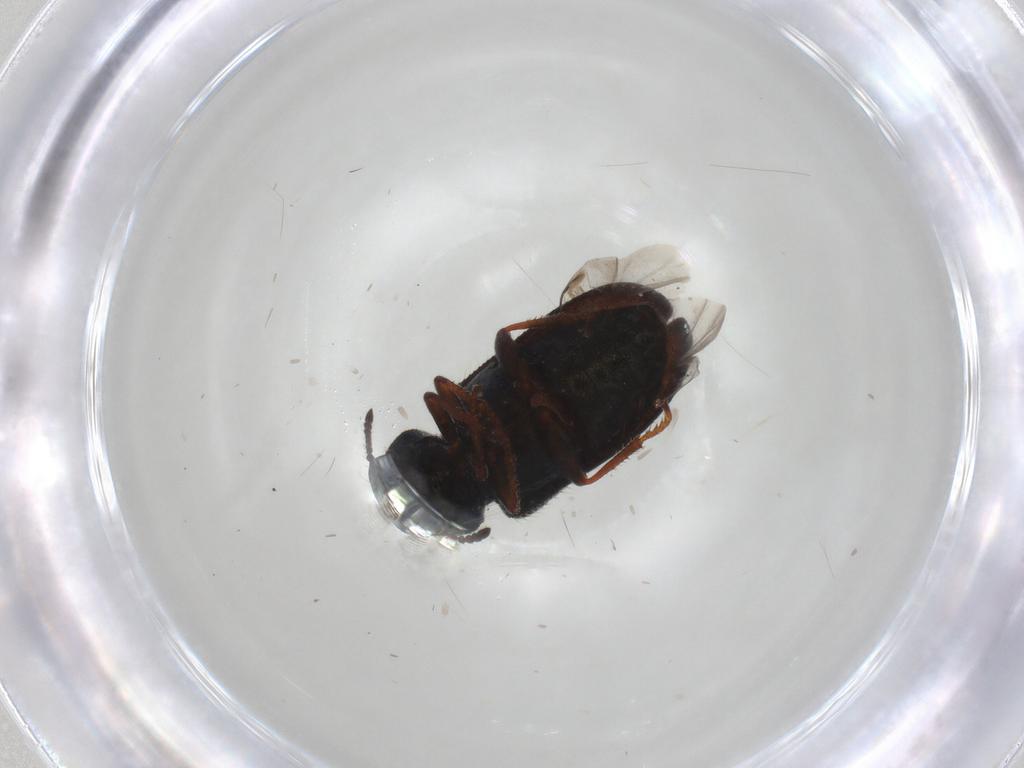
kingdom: Animalia
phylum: Arthropoda
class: Insecta
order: Coleoptera
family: Melyridae
